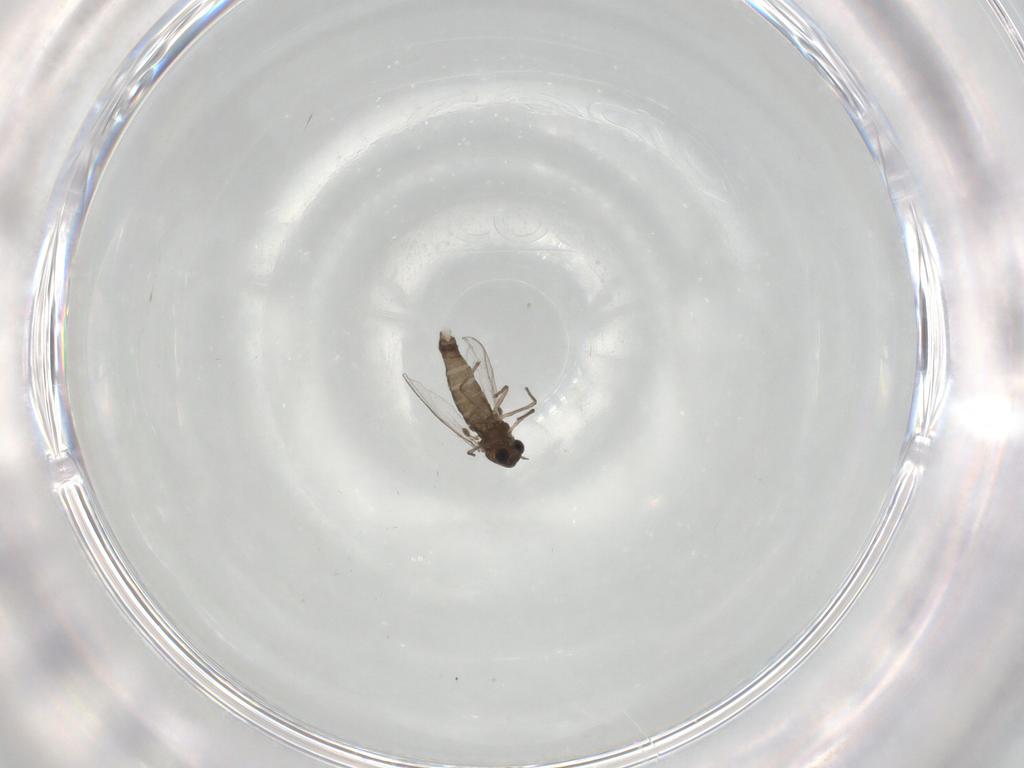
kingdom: Animalia
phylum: Arthropoda
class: Insecta
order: Diptera
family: Chironomidae
